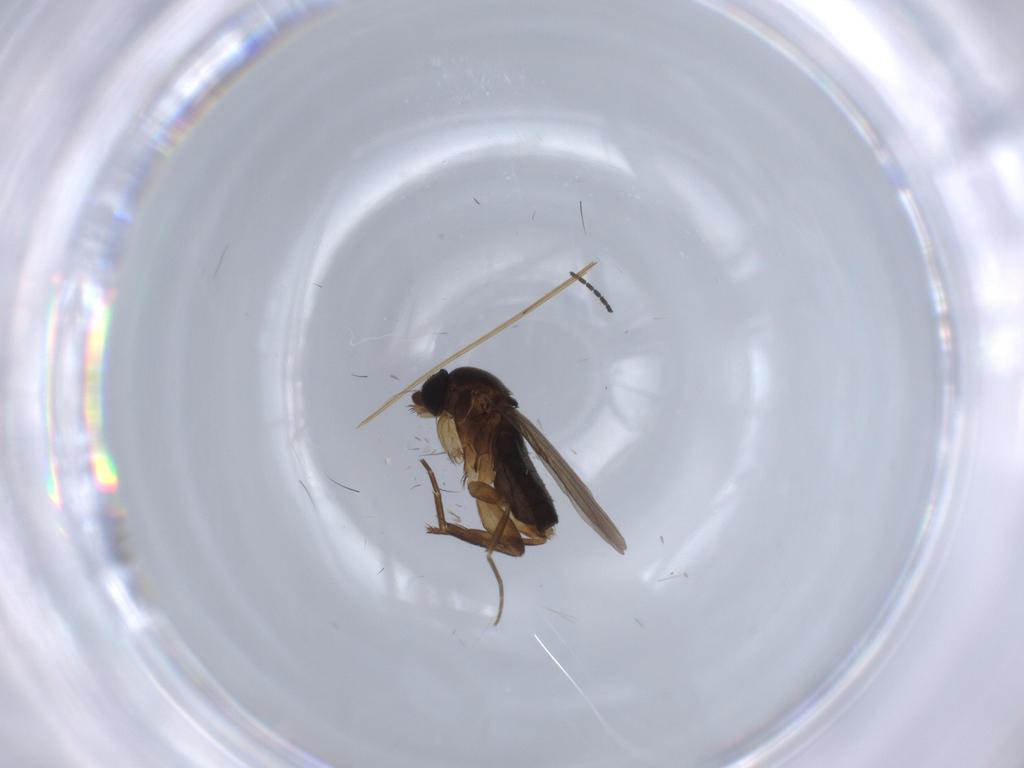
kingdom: Animalia
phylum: Arthropoda
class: Insecta
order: Diptera
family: Phoridae
